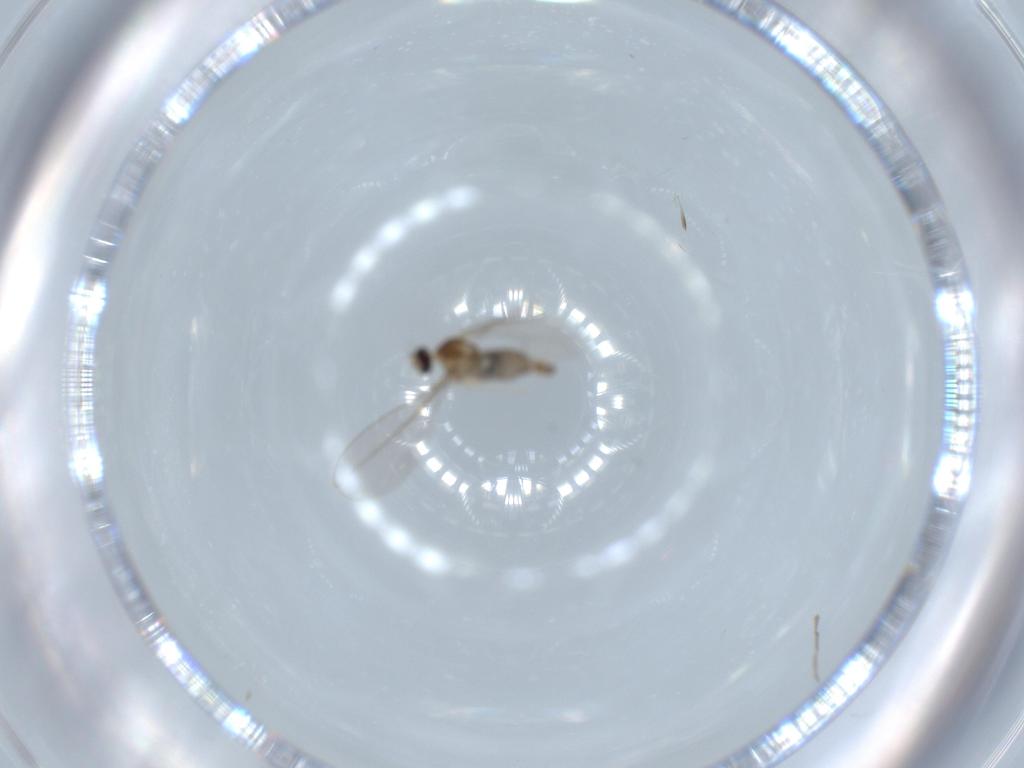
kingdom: Animalia
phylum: Arthropoda
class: Insecta
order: Diptera
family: Cecidomyiidae
